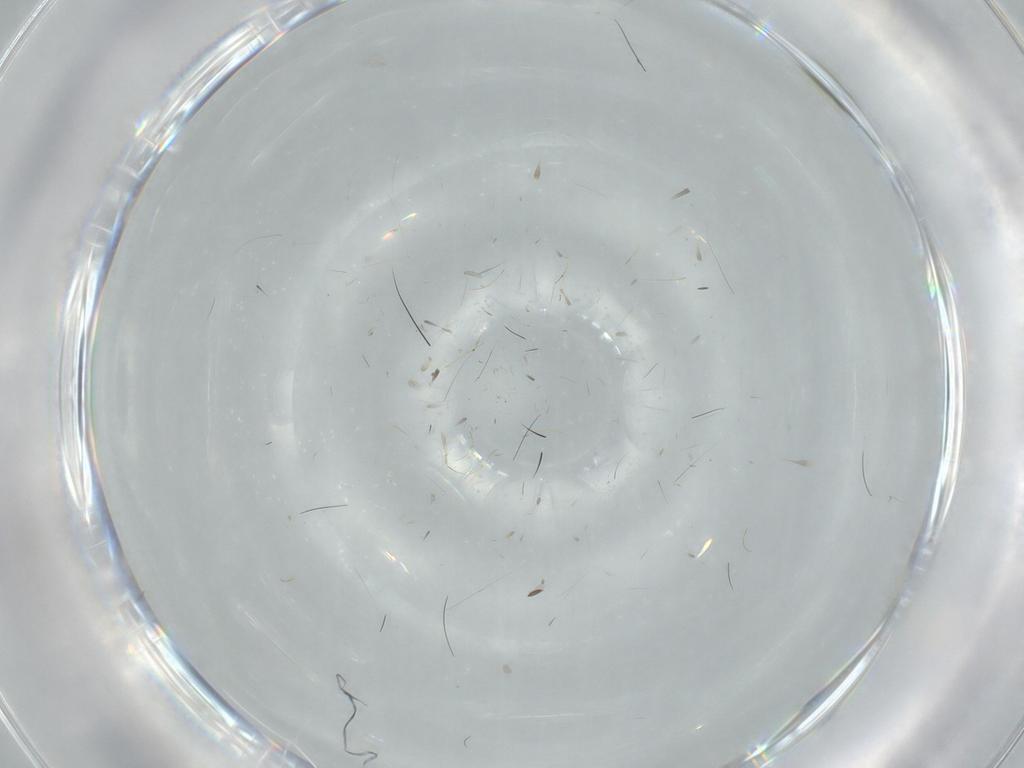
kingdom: Animalia
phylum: Arthropoda
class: Insecta
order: Hymenoptera
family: Scoliidae
